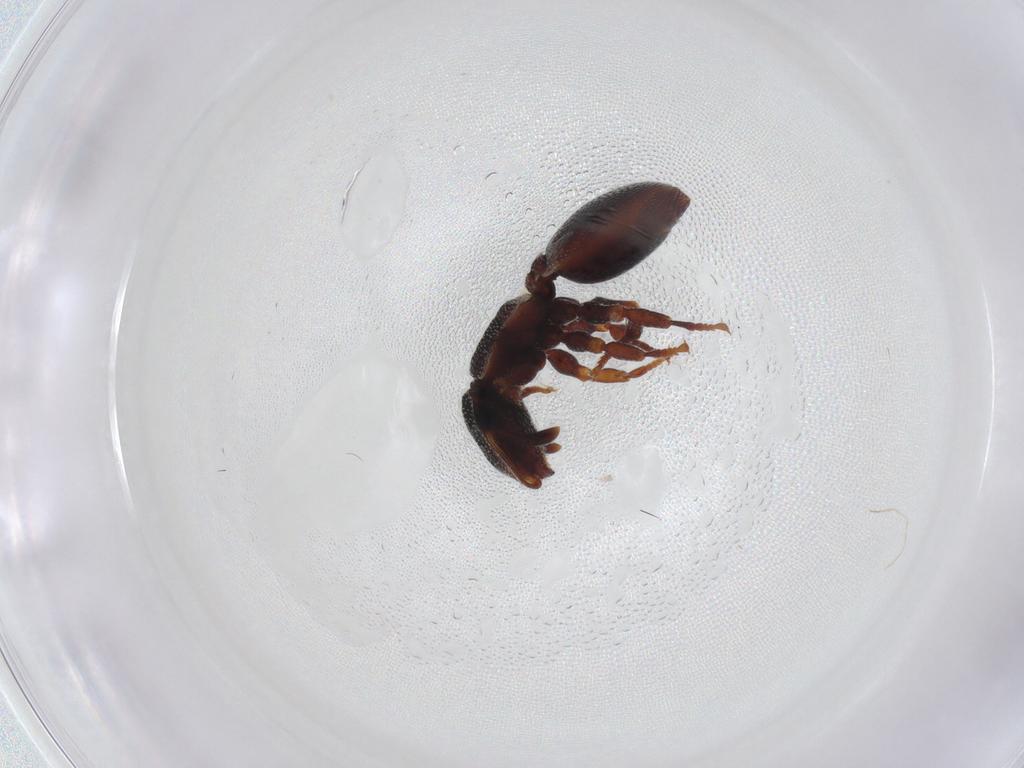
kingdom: Animalia
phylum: Arthropoda
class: Insecta
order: Hymenoptera
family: Formicidae
